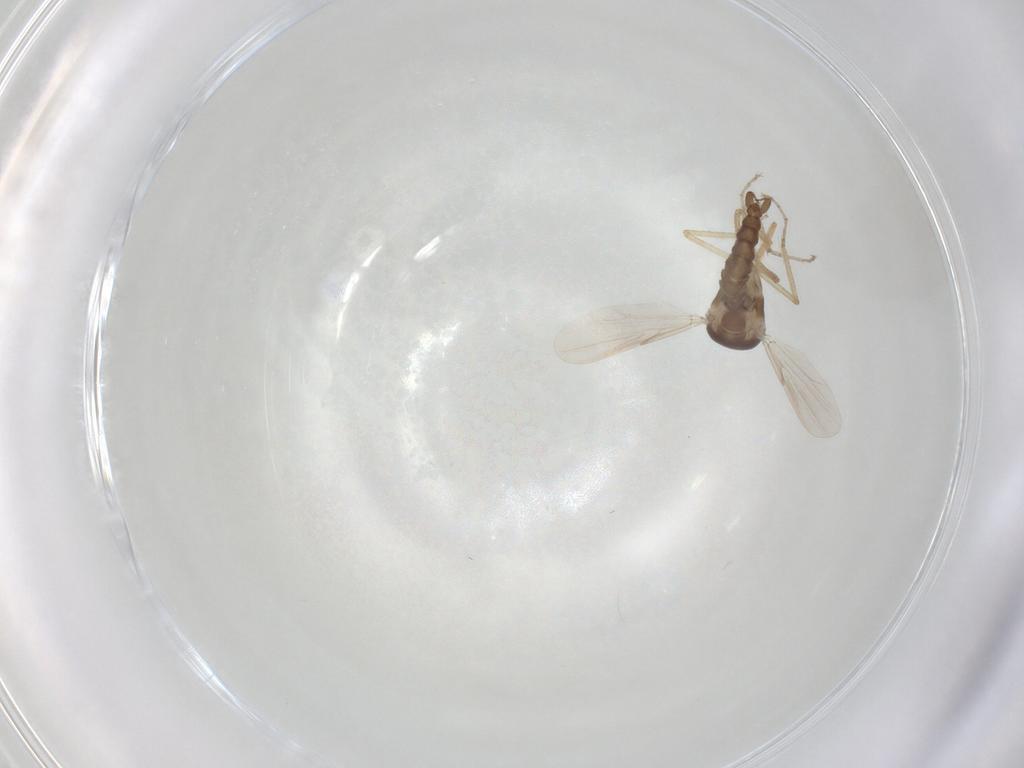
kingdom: Animalia
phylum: Arthropoda
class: Insecta
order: Diptera
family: Ceratopogonidae
